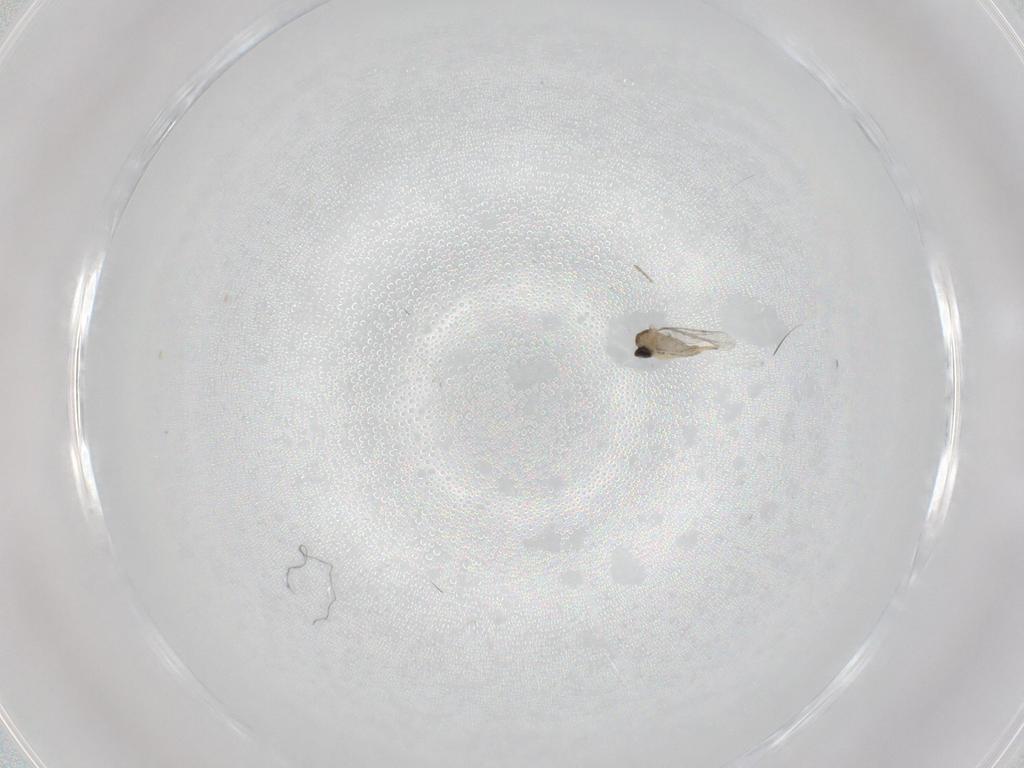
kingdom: Animalia
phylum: Arthropoda
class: Insecta
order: Diptera
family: Cecidomyiidae
